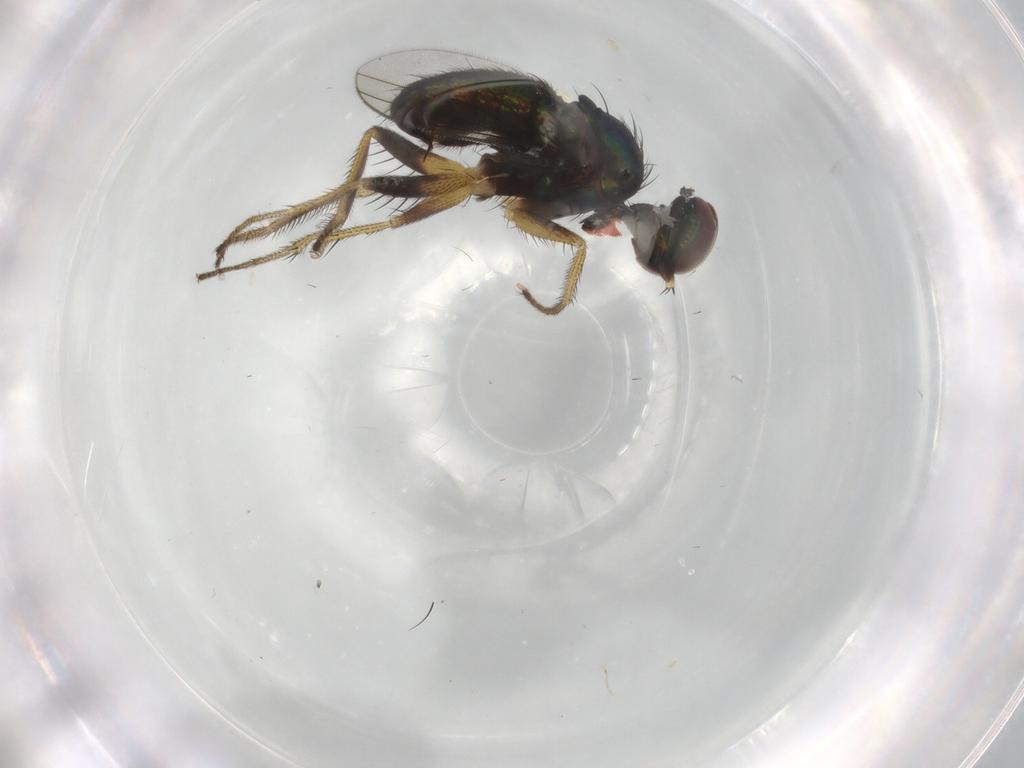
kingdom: Animalia
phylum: Arthropoda
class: Insecta
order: Diptera
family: Dolichopodidae
